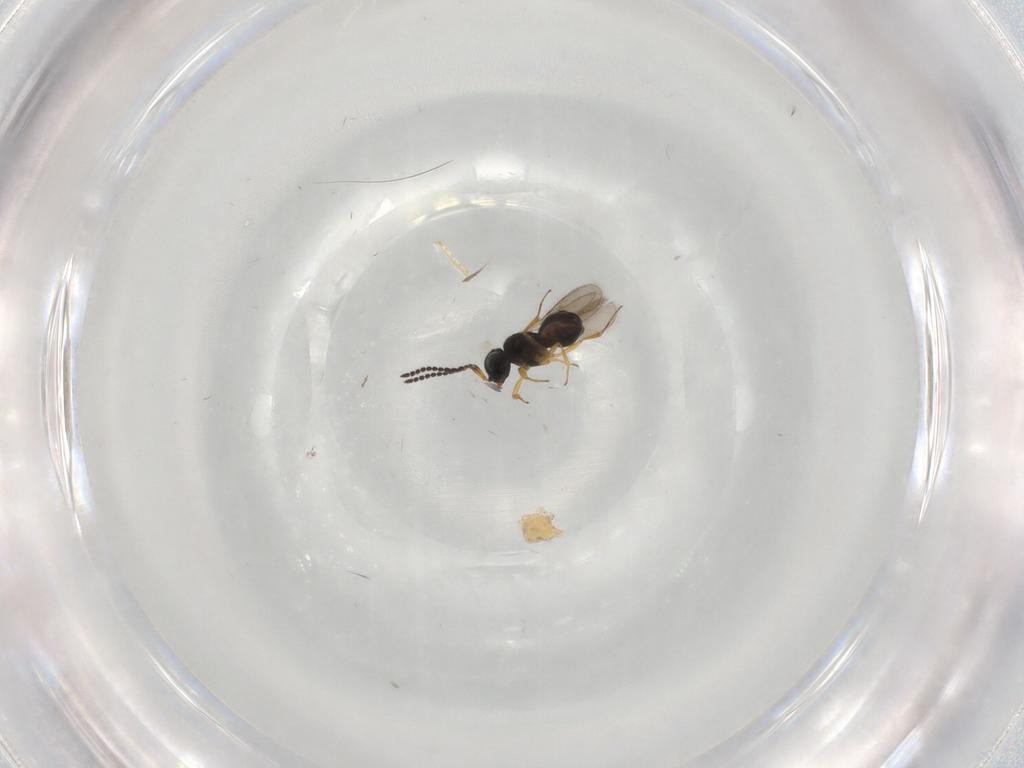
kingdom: Animalia
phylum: Arthropoda
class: Insecta
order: Hymenoptera
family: Scelionidae
